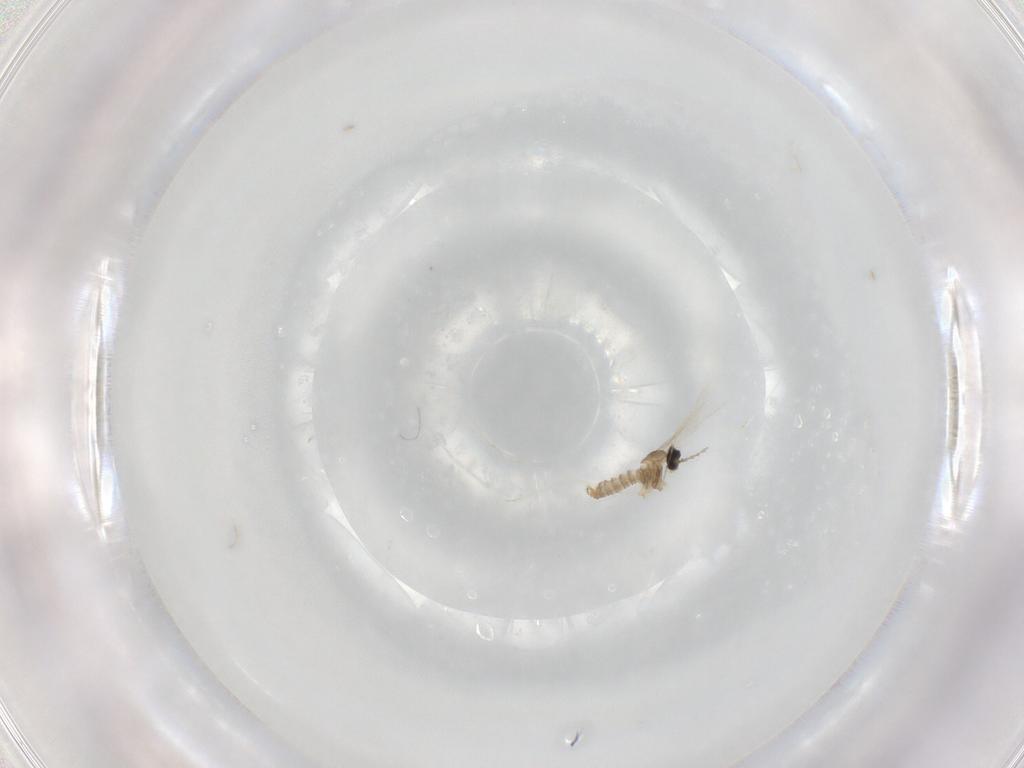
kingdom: Animalia
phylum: Arthropoda
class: Insecta
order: Diptera
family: Cecidomyiidae
